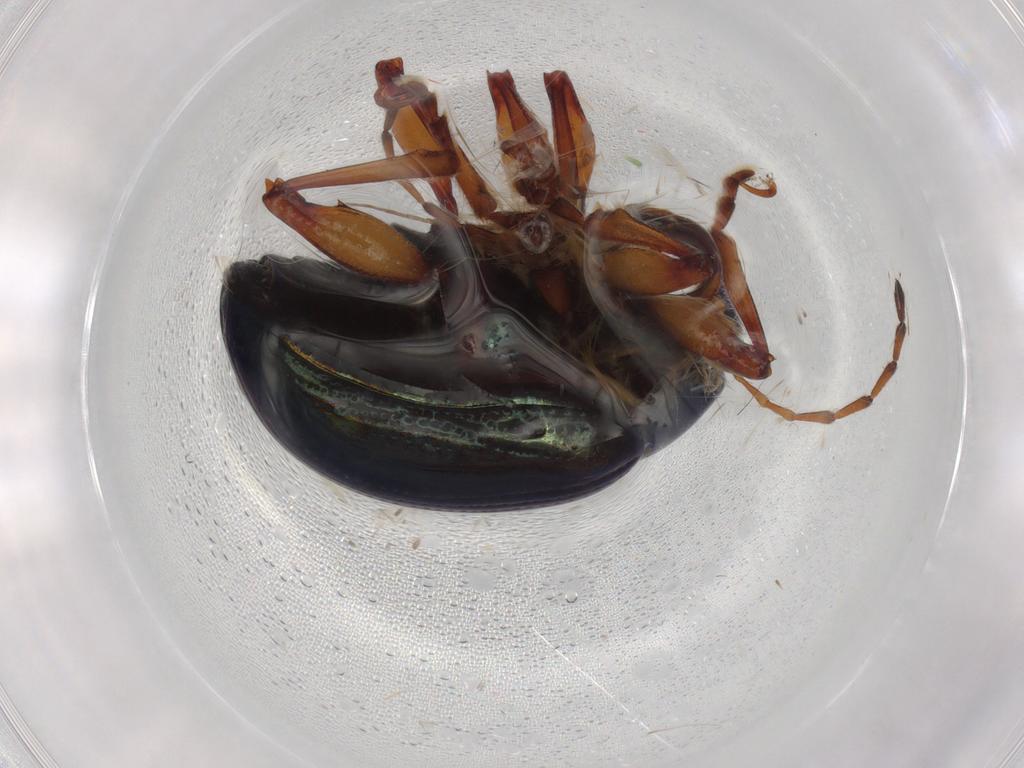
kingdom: Animalia
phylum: Arthropoda
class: Insecta
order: Coleoptera
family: Chrysomelidae
